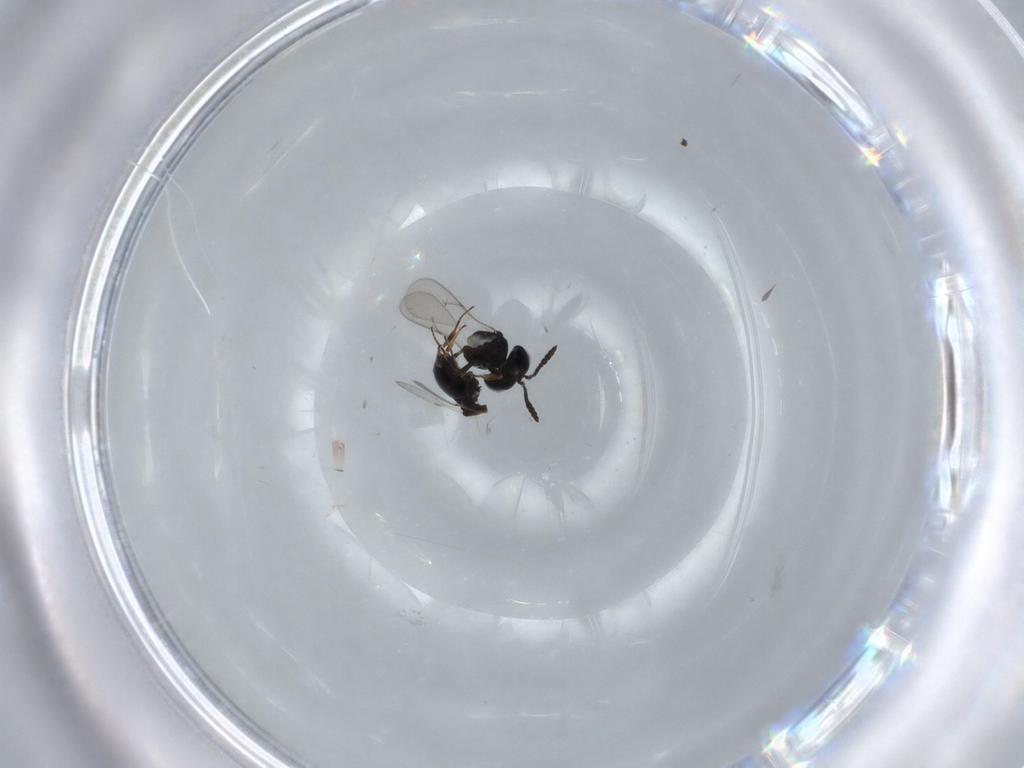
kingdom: Animalia
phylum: Arthropoda
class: Insecta
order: Hymenoptera
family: Scelionidae
